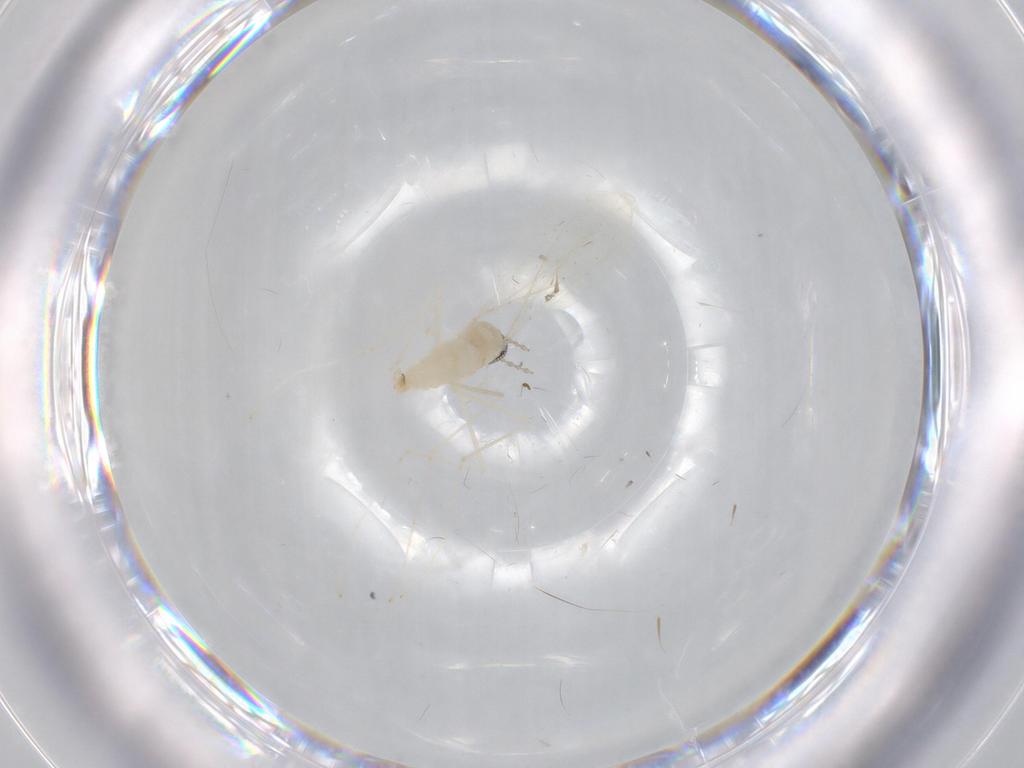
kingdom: Animalia
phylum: Arthropoda
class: Insecta
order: Diptera
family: Cecidomyiidae
